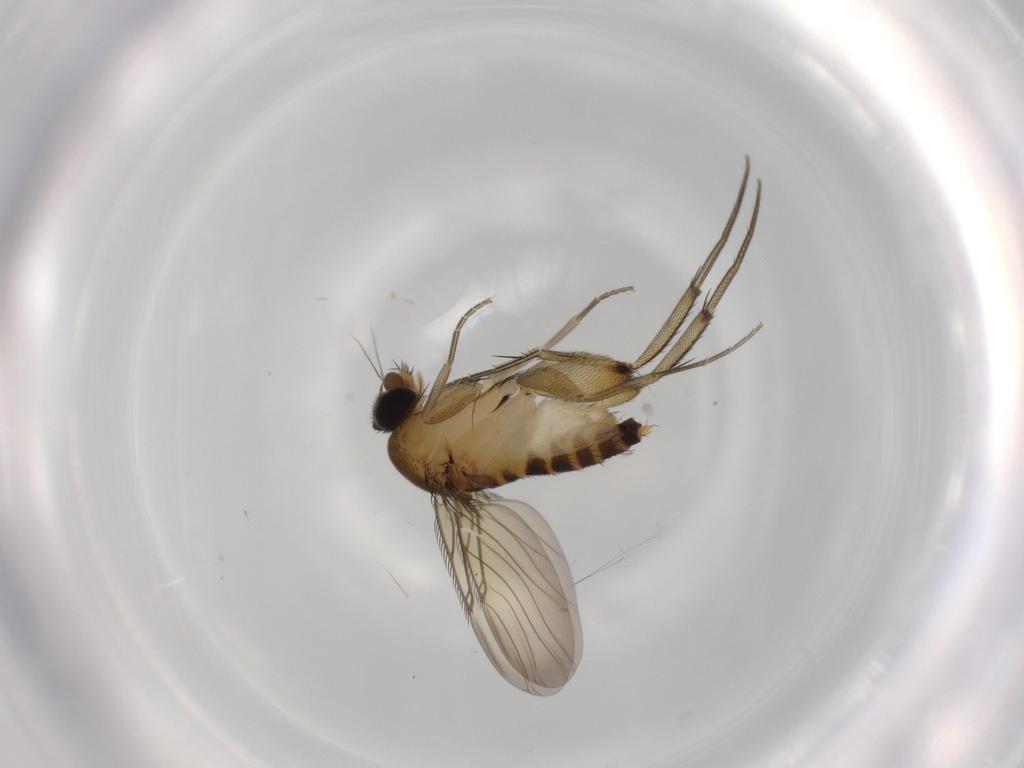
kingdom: Animalia
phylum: Arthropoda
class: Insecta
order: Diptera
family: Phoridae
